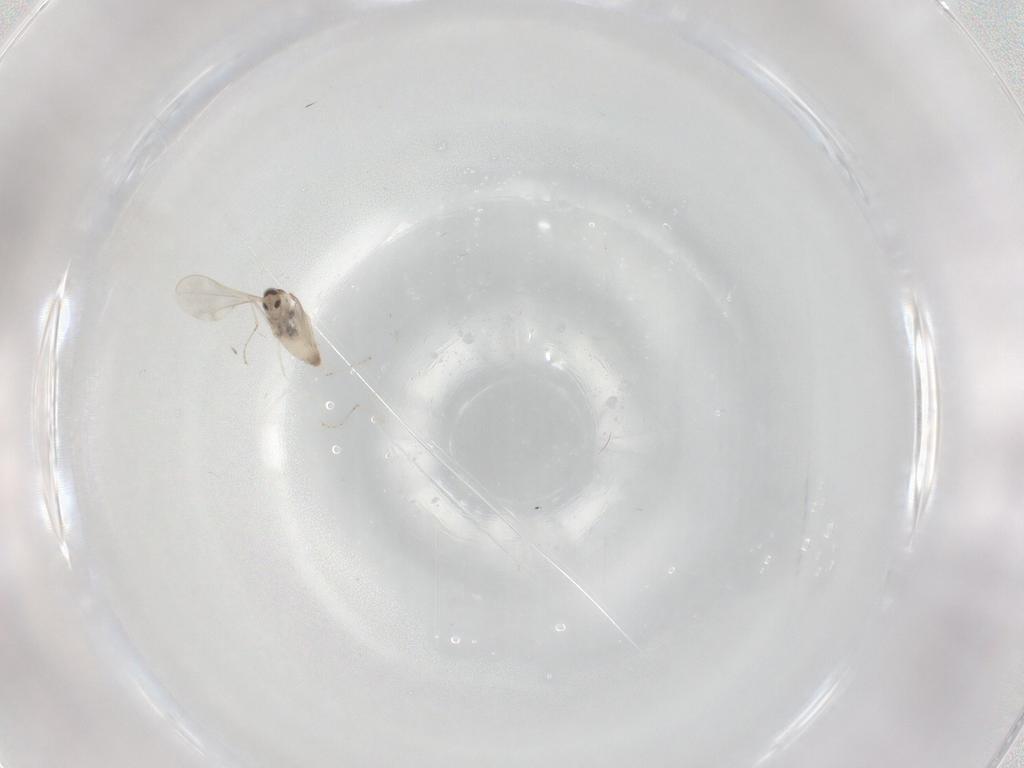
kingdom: Animalia
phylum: Arthropoda
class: Insecta
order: Diptera
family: Cecidomyiidae
